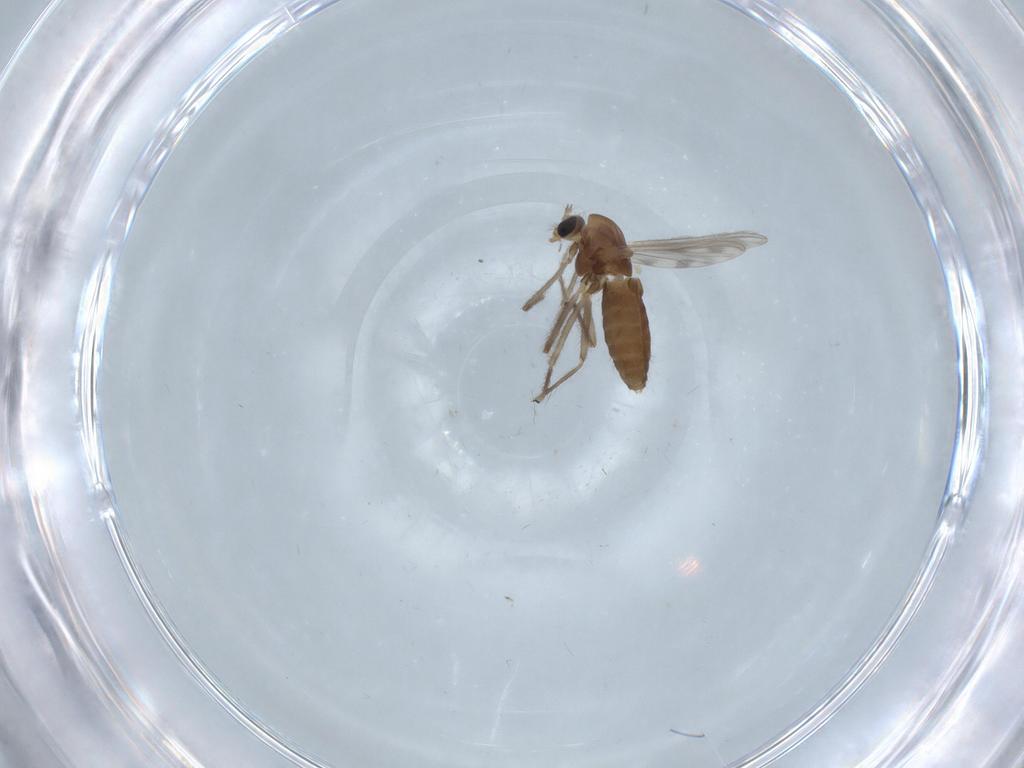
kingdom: Animalia
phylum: Arthropoda
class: Insecta
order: Diptera
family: Chironomidae
